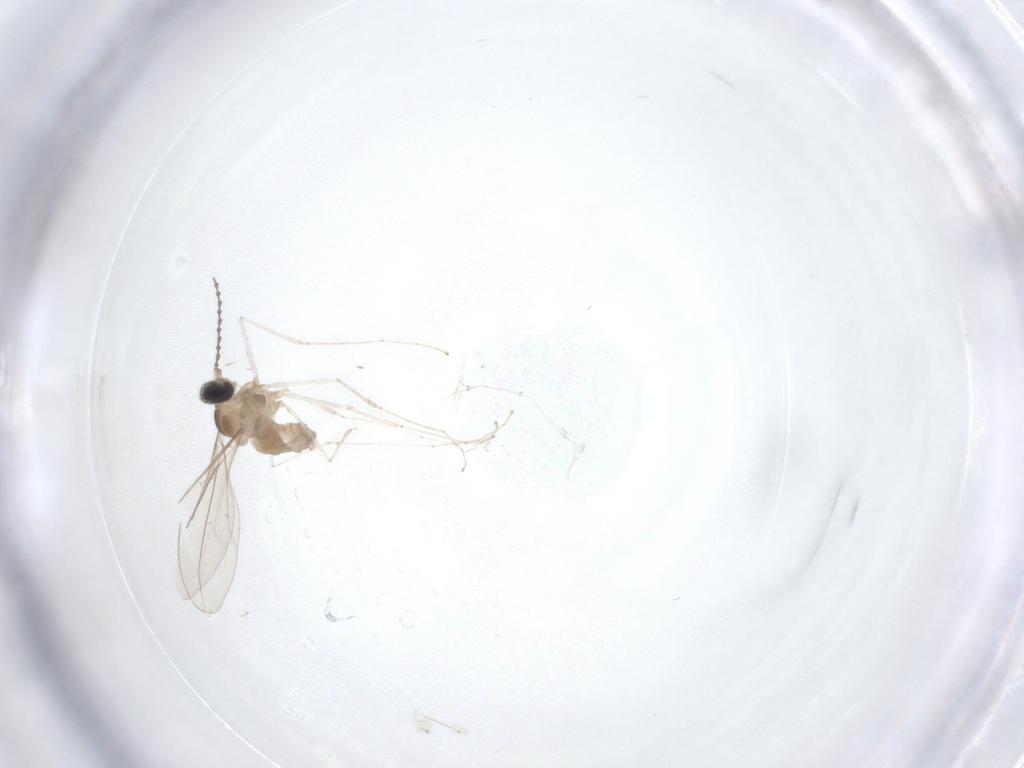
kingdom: Animalia
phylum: Arthropoda
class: Insecta
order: Diptera
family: Cecidomyiidae
